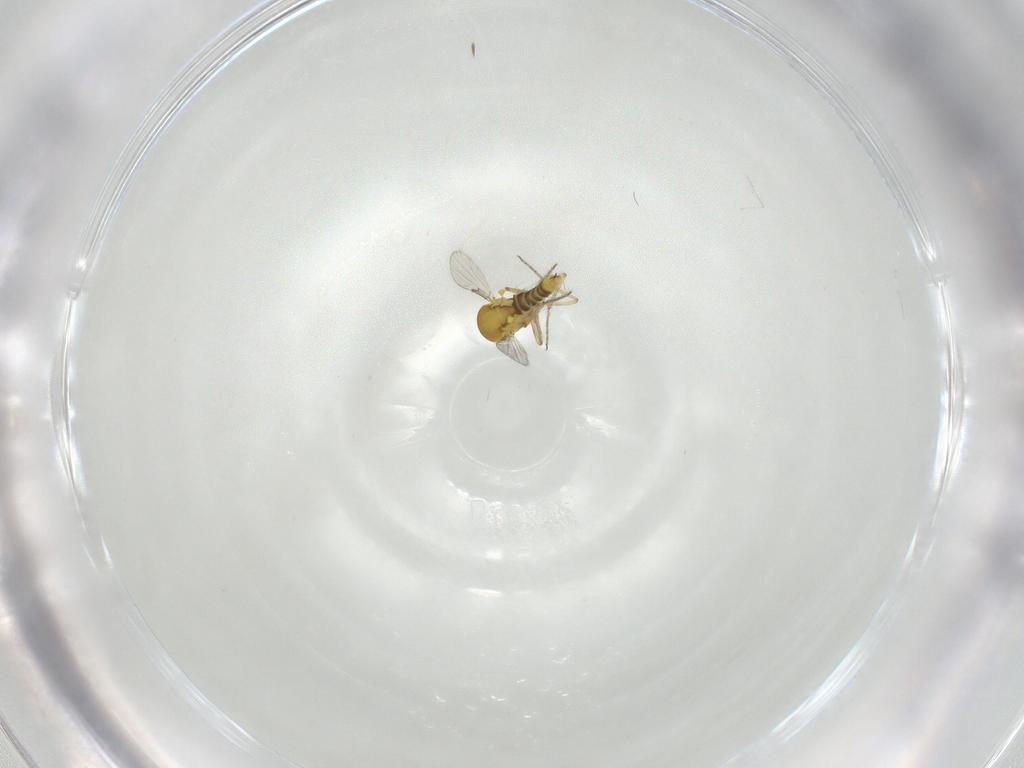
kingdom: Animalia
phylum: Arthropoda
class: Insecta
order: Diptera
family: Cecidomyiidae
